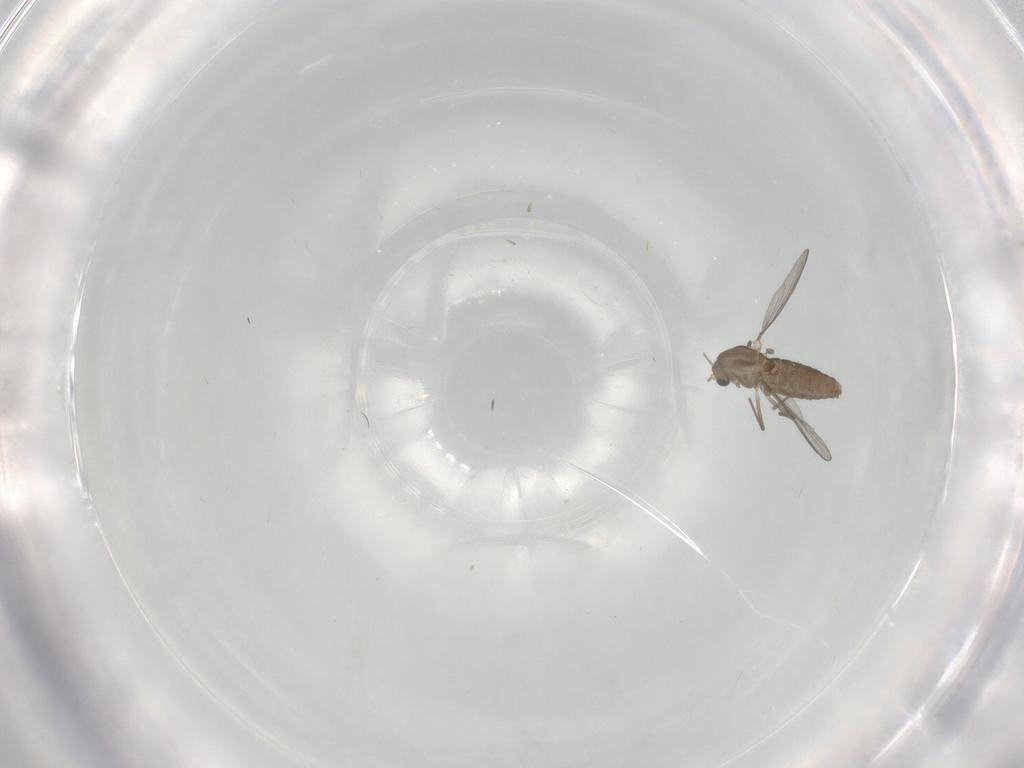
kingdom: Animalia
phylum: Arthropoda
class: Insecta
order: Diptera
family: Chironomidae
